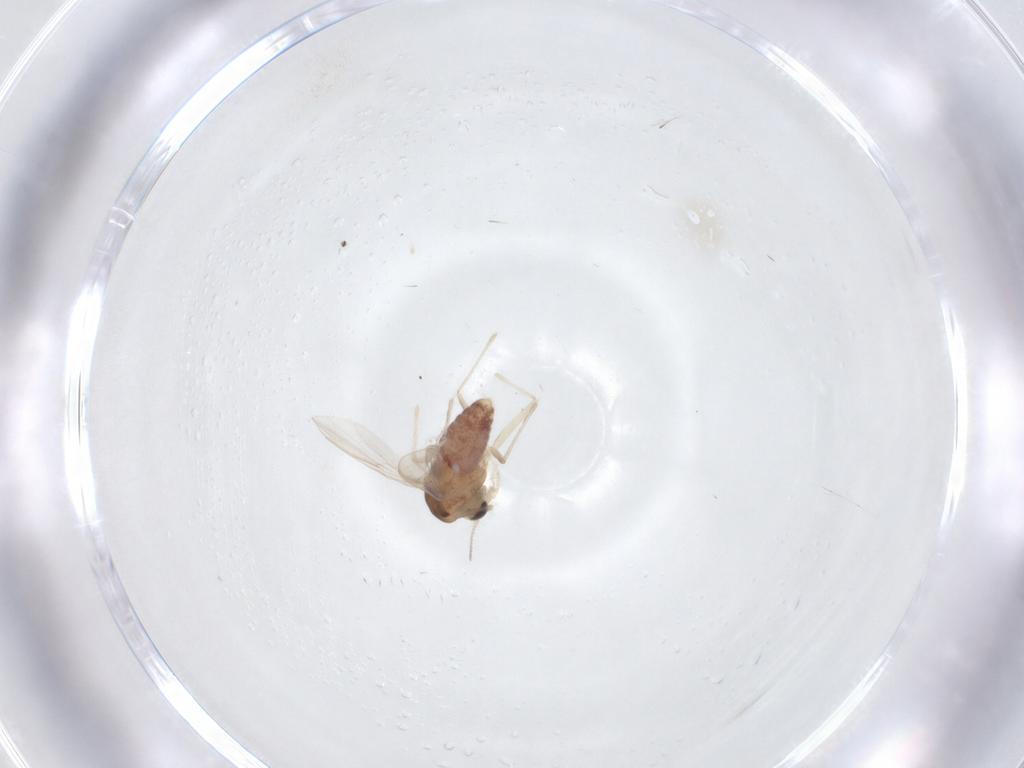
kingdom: Animalia
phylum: Arthropoda
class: Insecta
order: Diptera
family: Chironomidae
